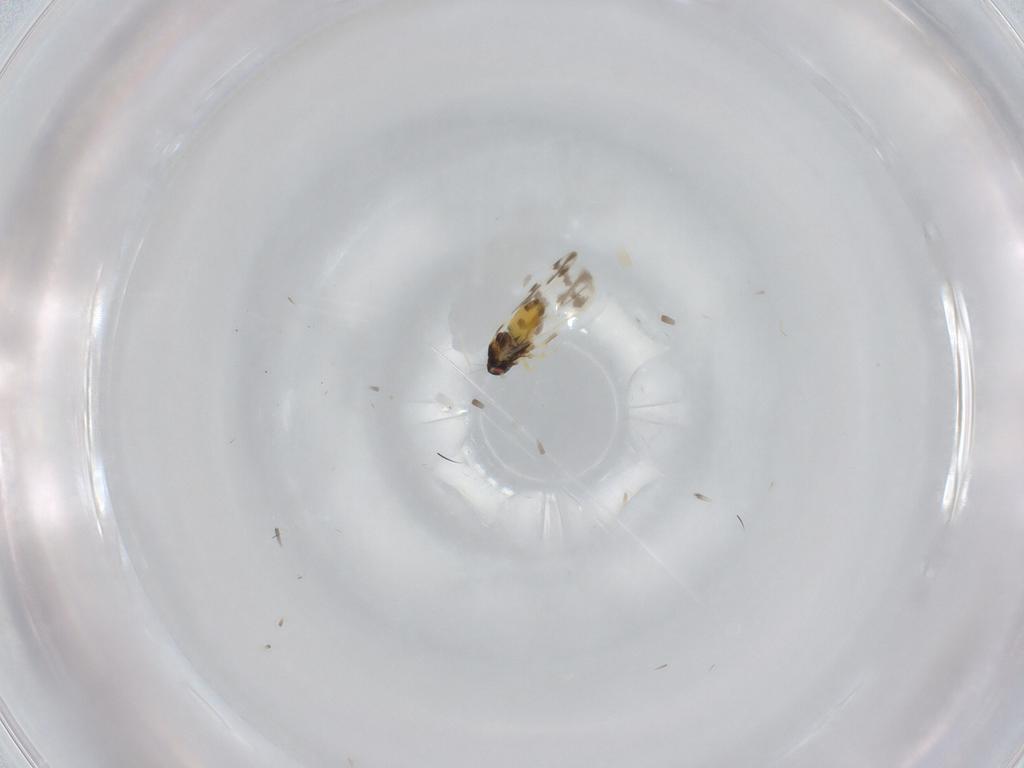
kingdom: Animalia
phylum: Arthropoda
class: Insecta
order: Hemiptera
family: Aleyrodidae
